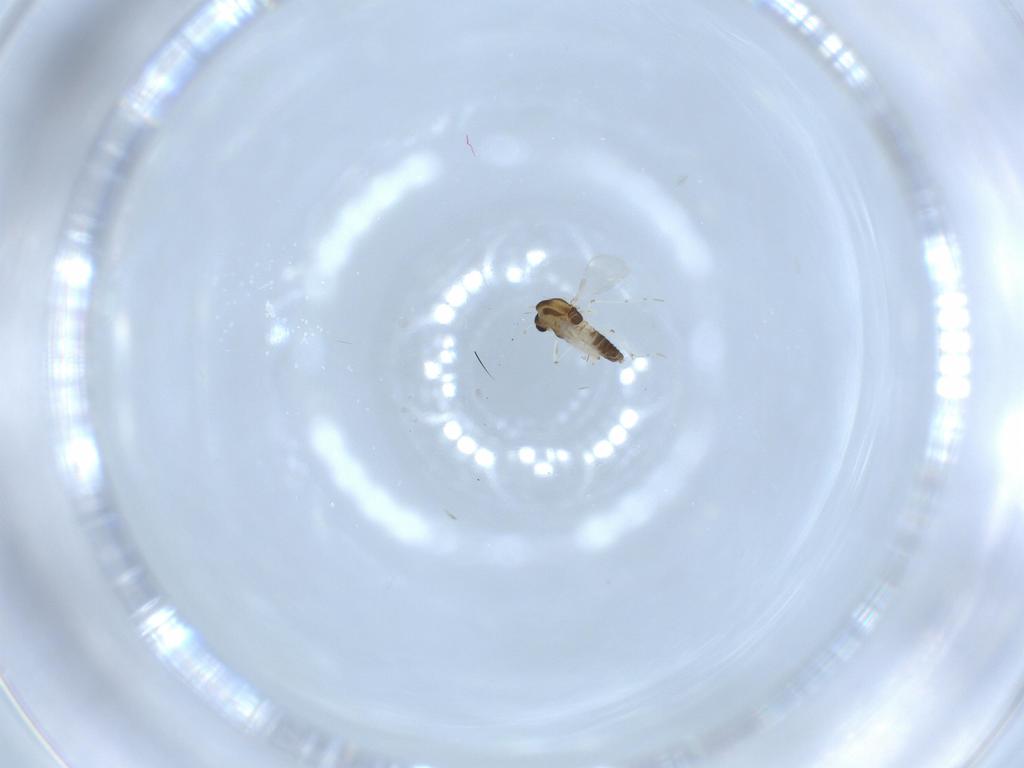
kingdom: Animalia
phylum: Arthropoda
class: Insecta
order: Diptera
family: Chironomidae
